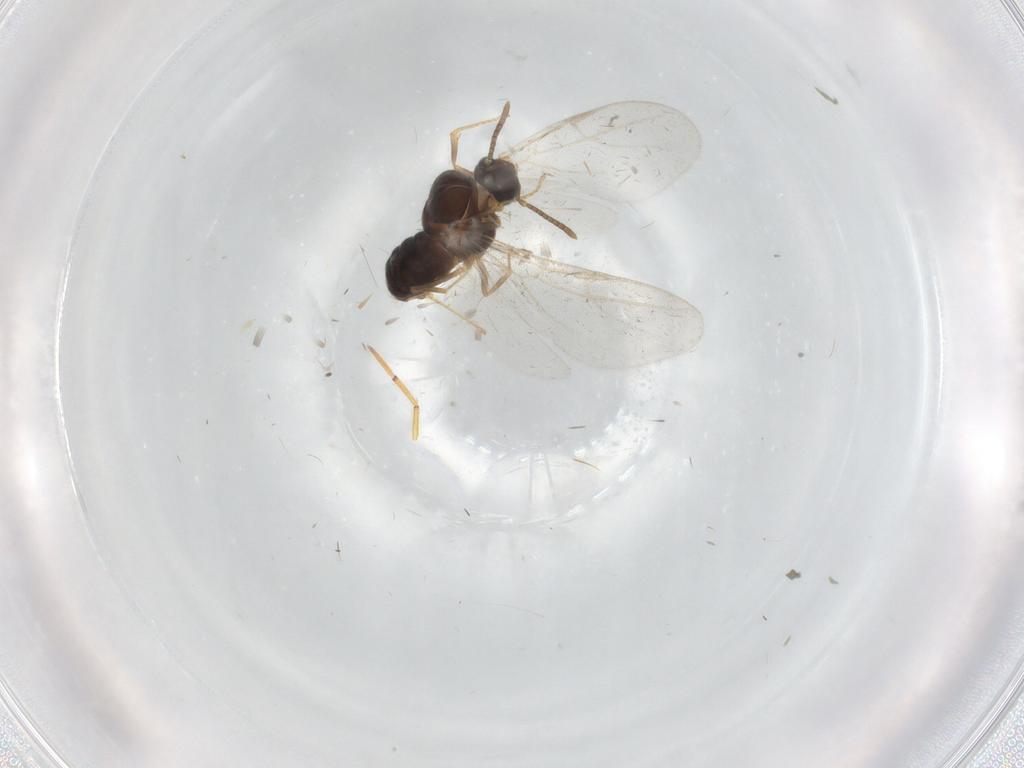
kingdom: Animalia
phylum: Arthropoda
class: Insecta
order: Hymenoptera
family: Formicidae
